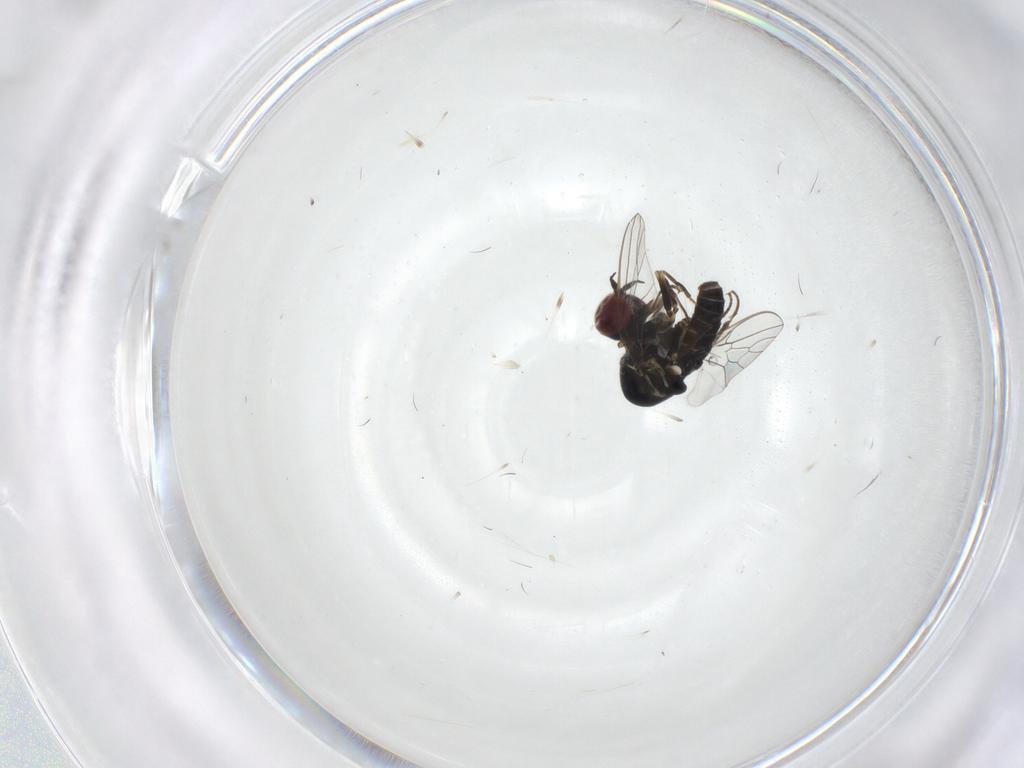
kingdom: Animalia
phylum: Arthropoda
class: Insecta
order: Diptera
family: Mythicomyiidae
